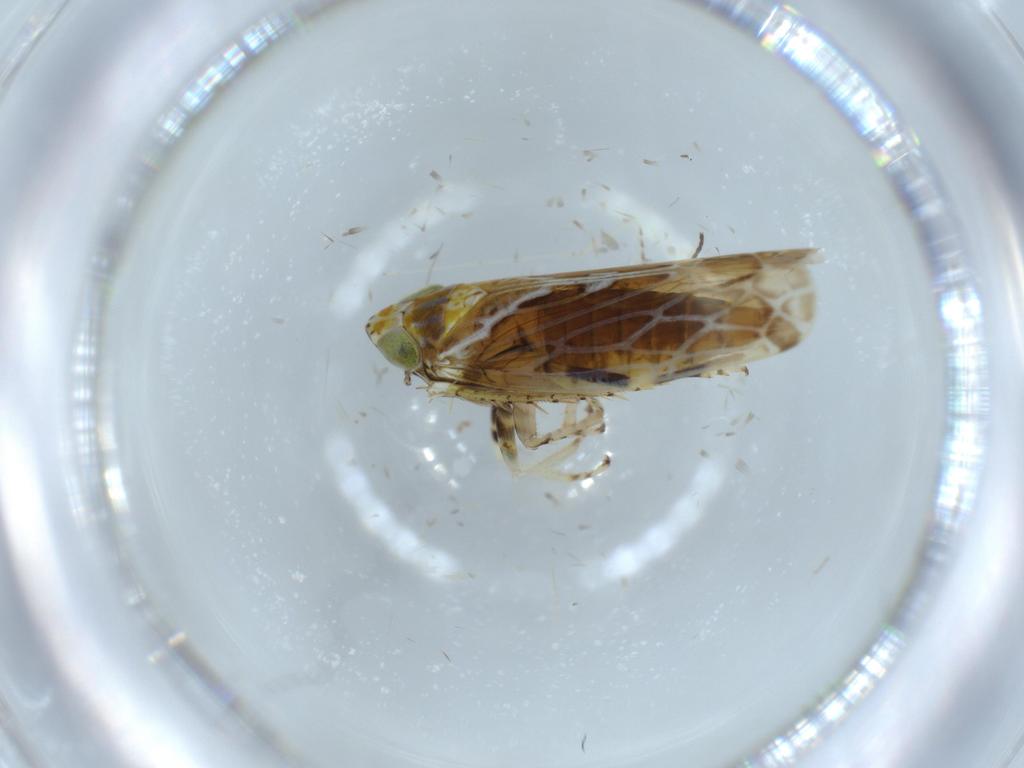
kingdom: Animalia
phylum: Arthropoda
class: Insecta
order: Hemiptera
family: Cicadellidae
